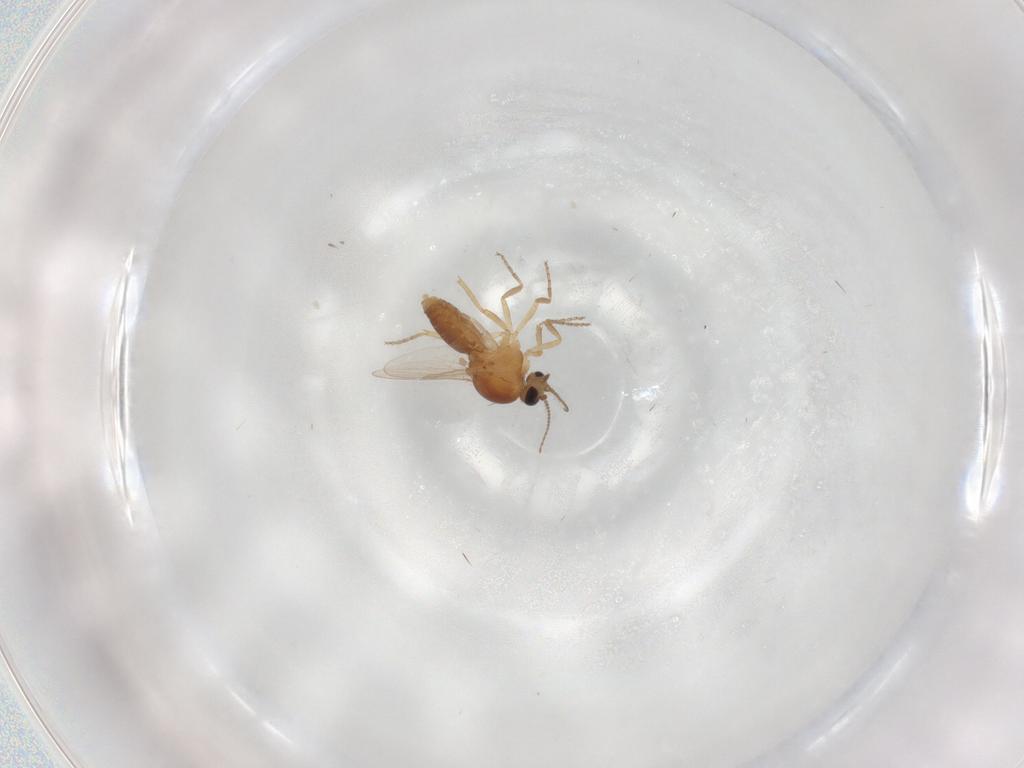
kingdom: Animalia
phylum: Arthropoda
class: Insecta
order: Diptera
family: Ceratopogonidae
